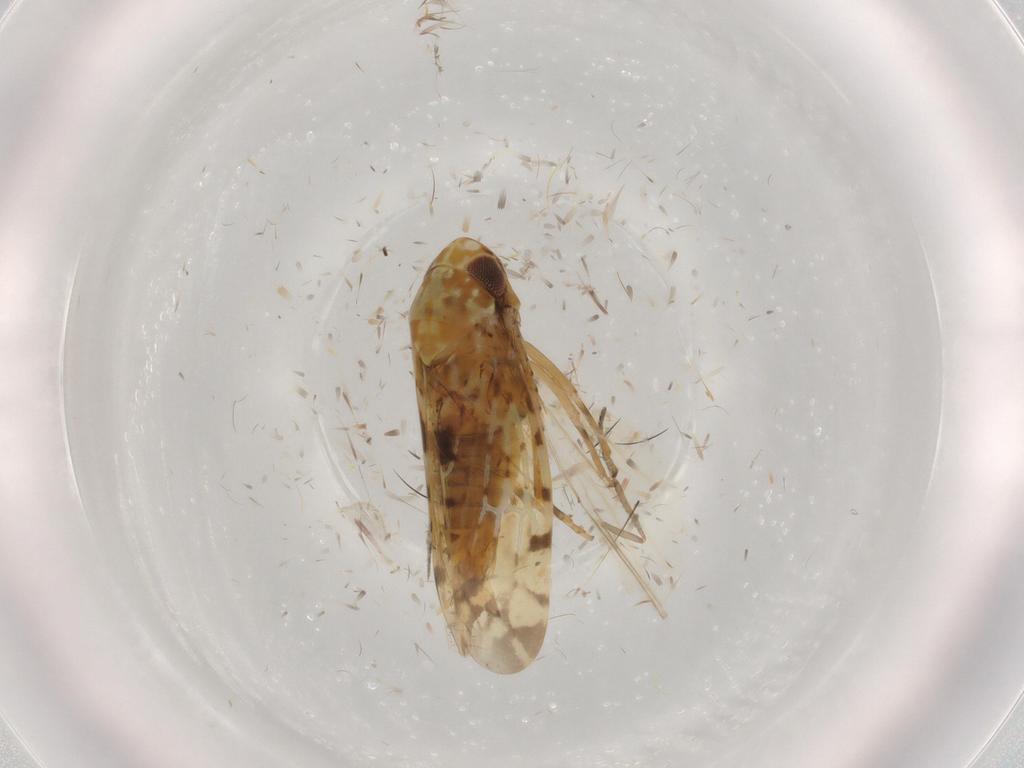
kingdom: Animalia
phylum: Arthropoda
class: Insecta
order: Hemiptera
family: Cicadellidae
